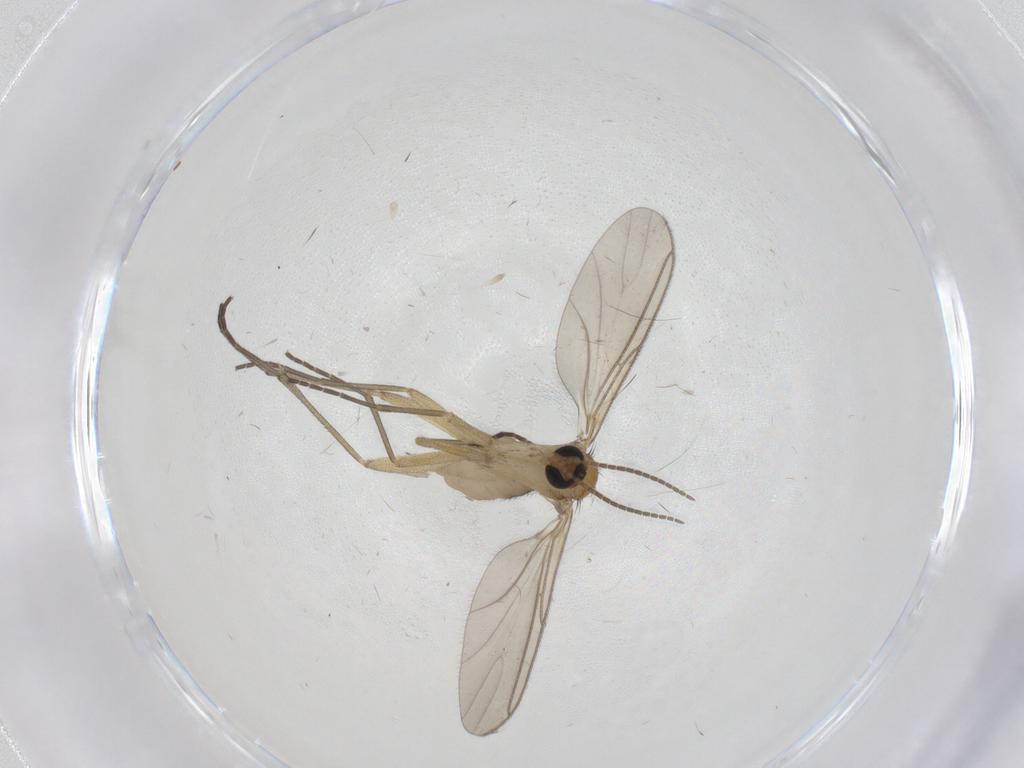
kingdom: Animalia
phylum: Arthropoda
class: Insecta
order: Diptera
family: Sciaridae
